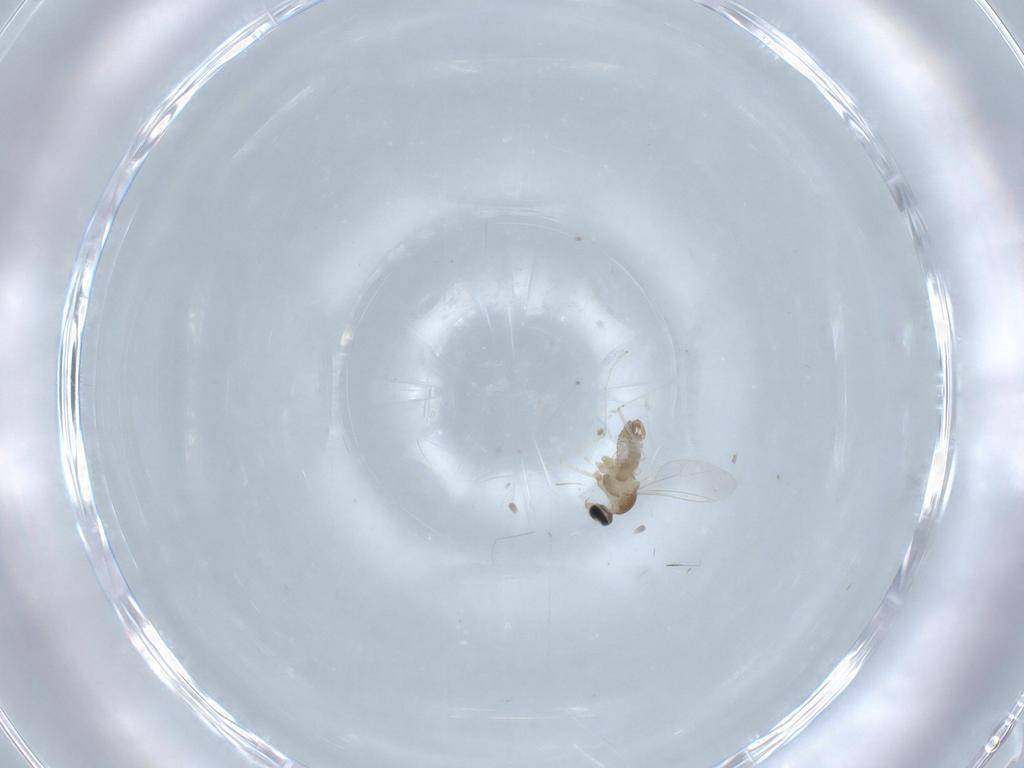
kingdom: Animalia
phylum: Arthropoda
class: Insecta
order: Diptera
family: Cecidomyiidae
